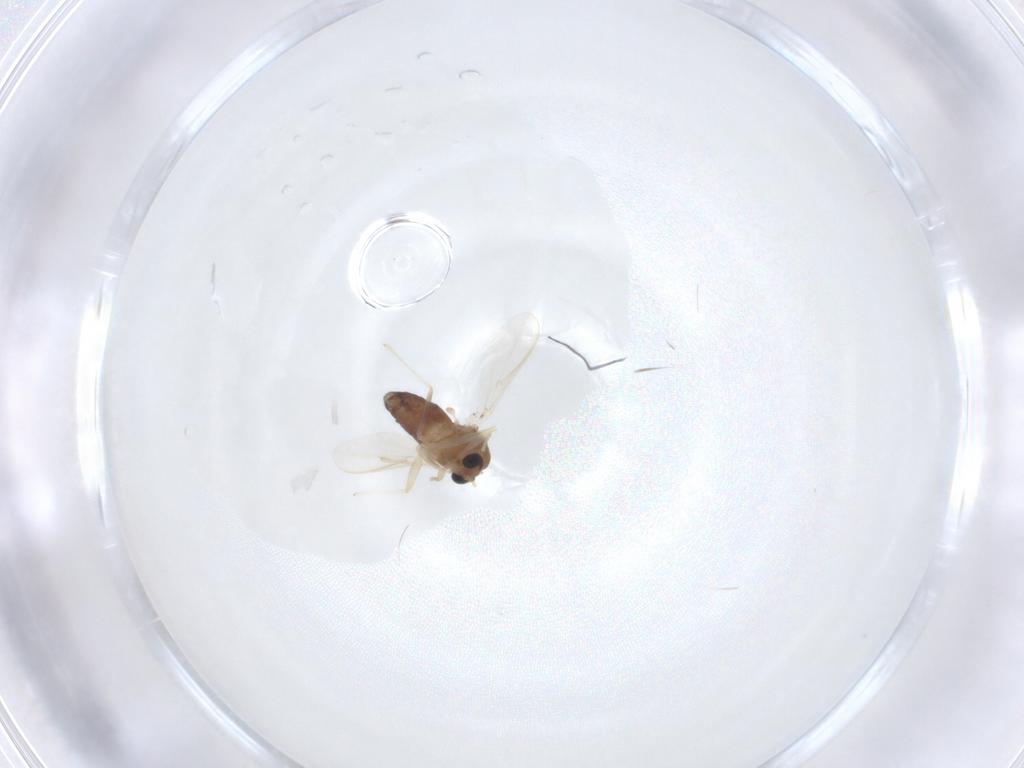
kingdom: Animalia
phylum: Arthropoda
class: Insecta
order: Diptera
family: Chironomidae
